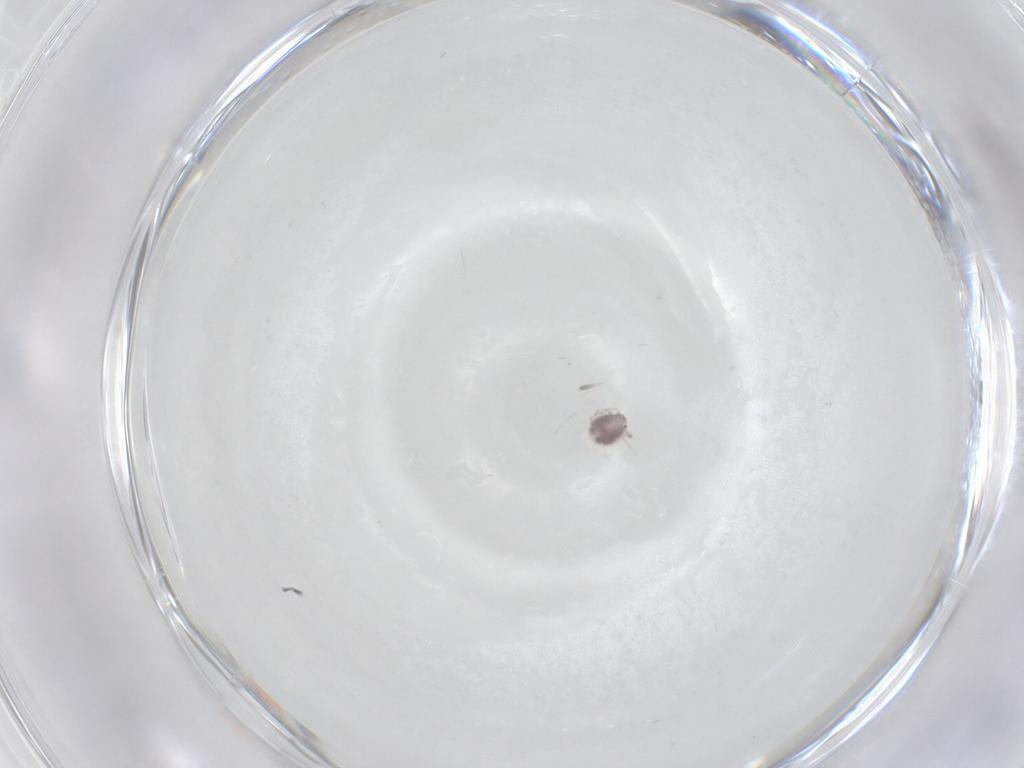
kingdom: Animalia
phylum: Arthropoda
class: Arachnida
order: Trombidiformes
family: Pionidae
